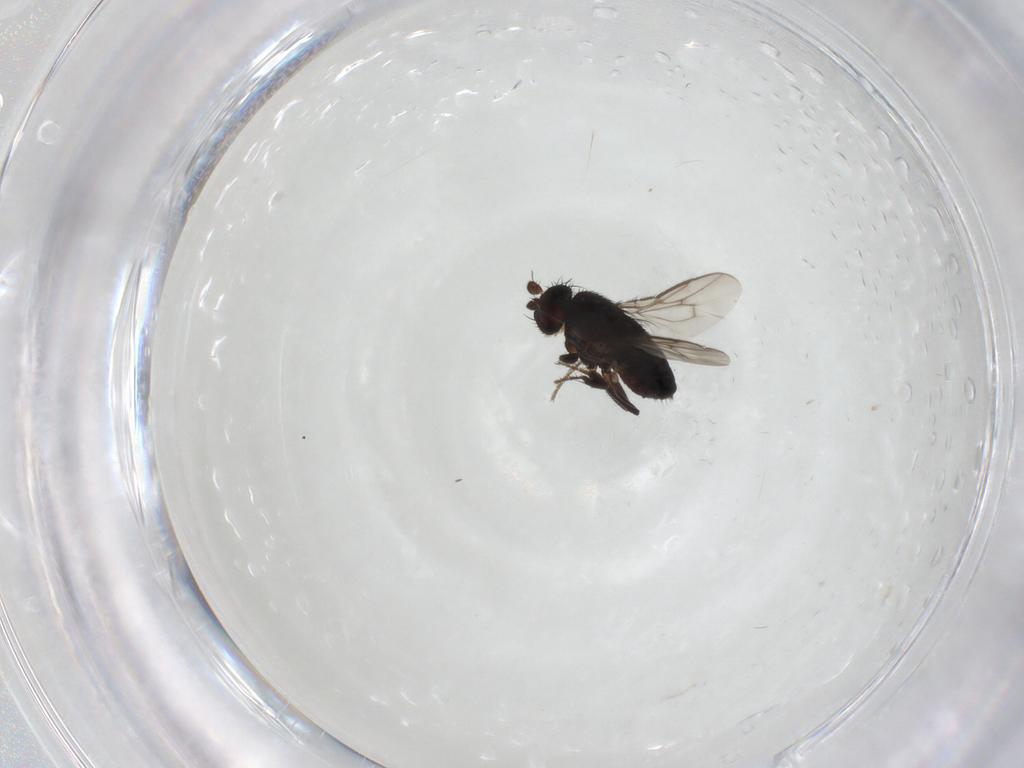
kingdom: Animalia
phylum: Arthropoda
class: Insecta
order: Diptera
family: Sphaeroceridae
